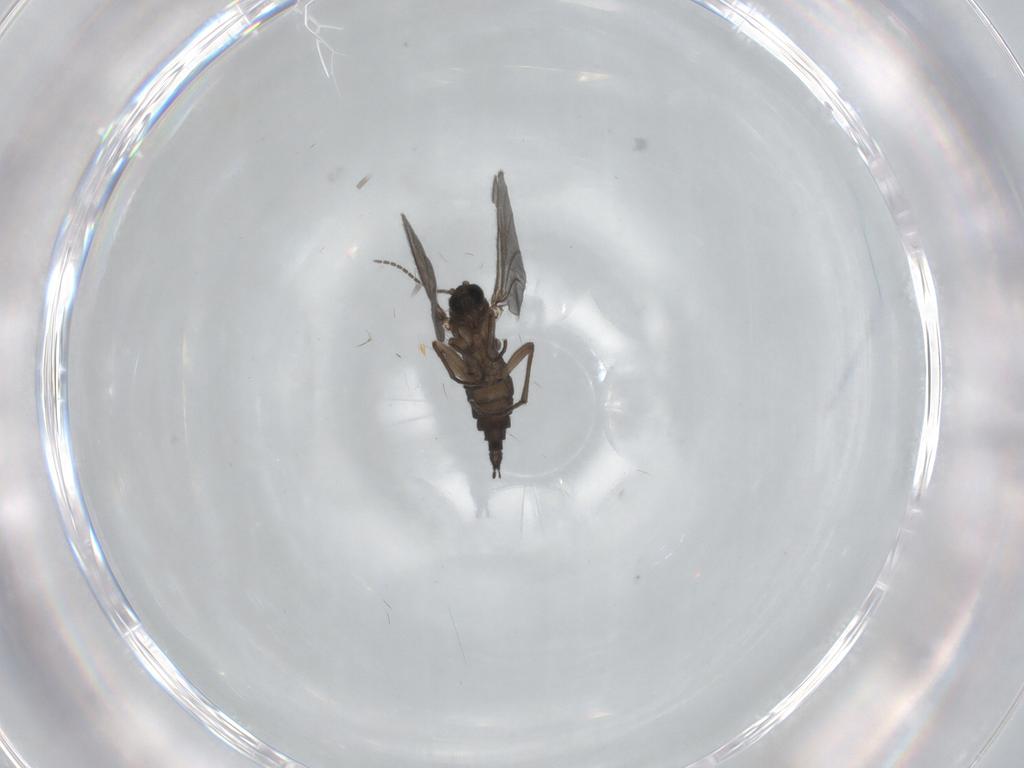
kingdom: Animalia
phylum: Arthropoda
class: Insecta
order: Diptera
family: Sciaridae
